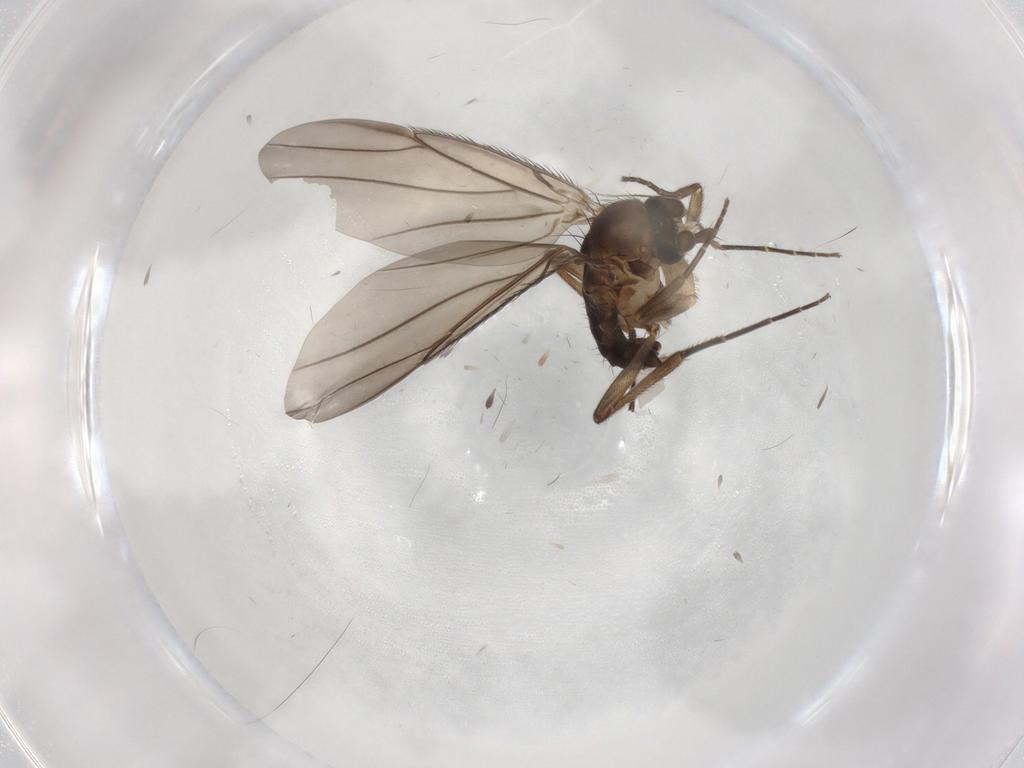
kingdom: Animalia
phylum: Arthropoda
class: Insecta
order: Diptera
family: Phoridae
